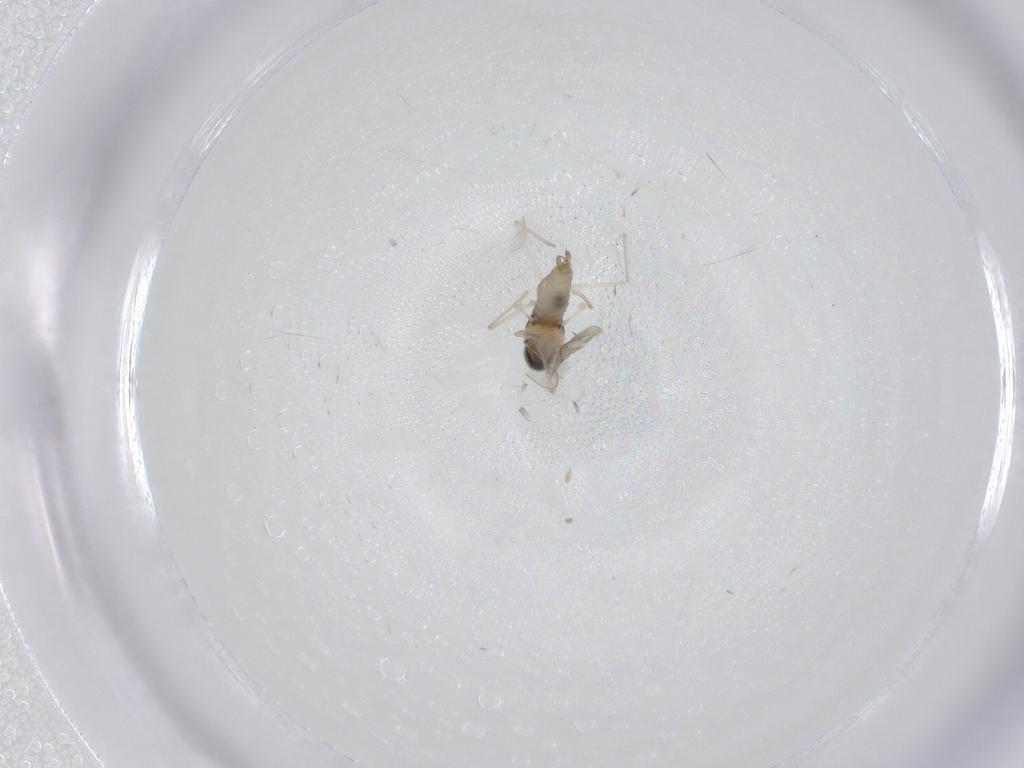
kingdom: Animalia
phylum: Arthropoda
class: Insecta
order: Diptera
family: Cecidomyiidae
